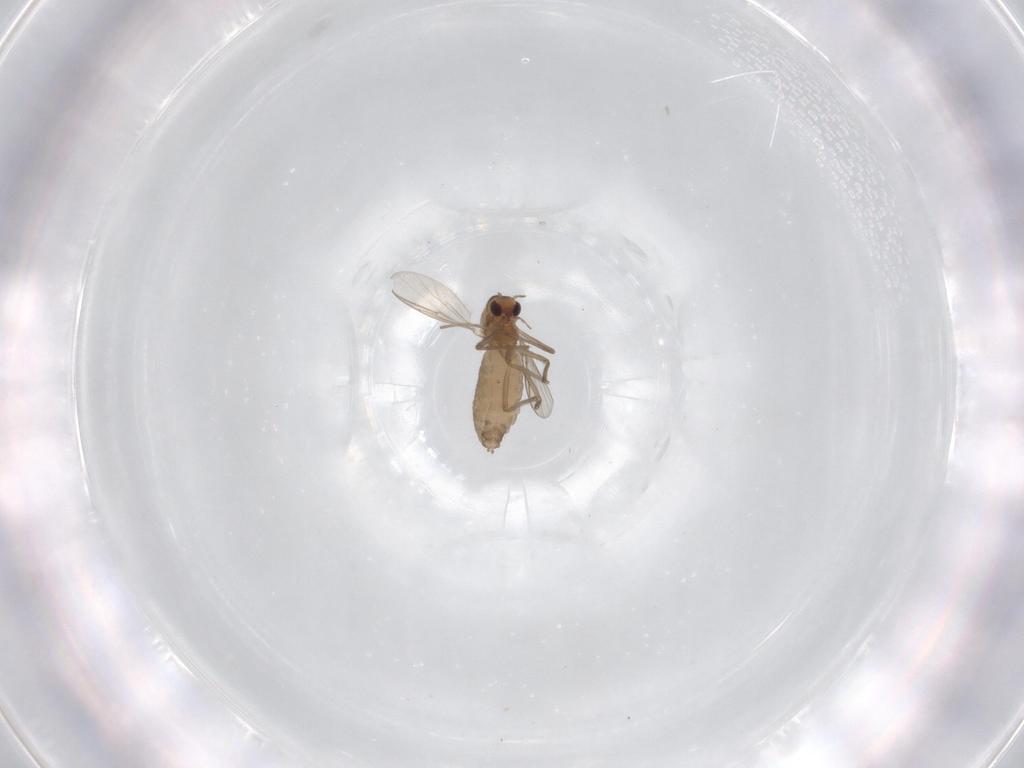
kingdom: Animalia
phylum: Arthropoda
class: Insecta
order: Diptera
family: Chironomidae
